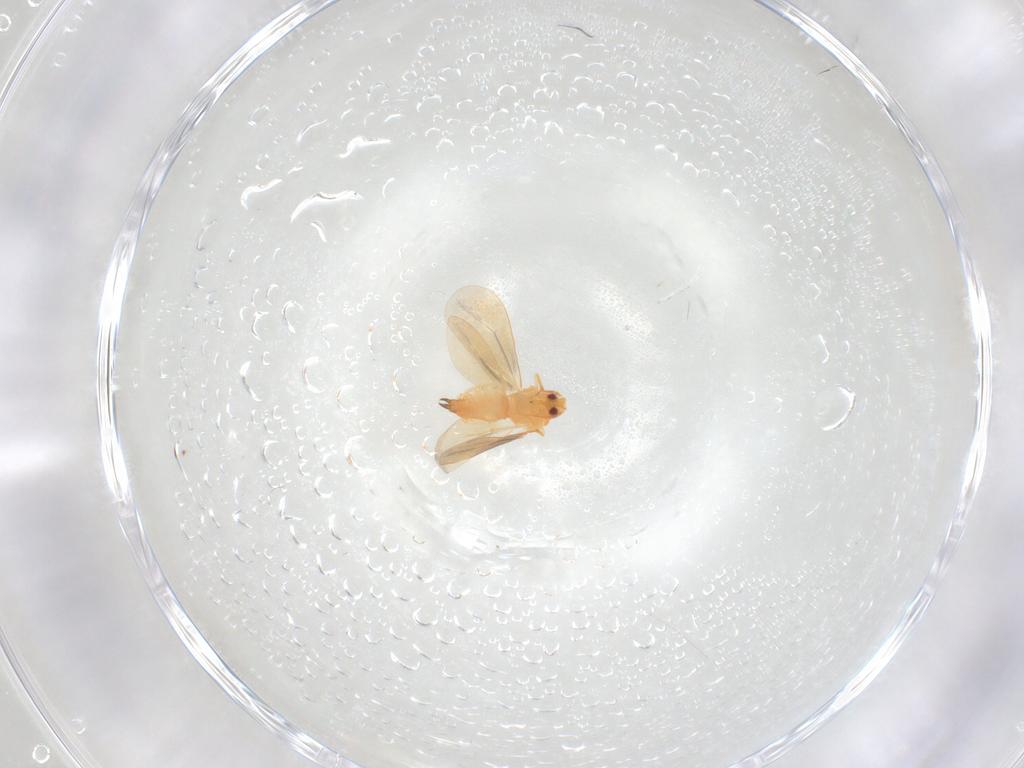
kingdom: Animalia
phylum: Arthropoda
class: Insecta
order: Hemiptera
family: Aleyrodidae
